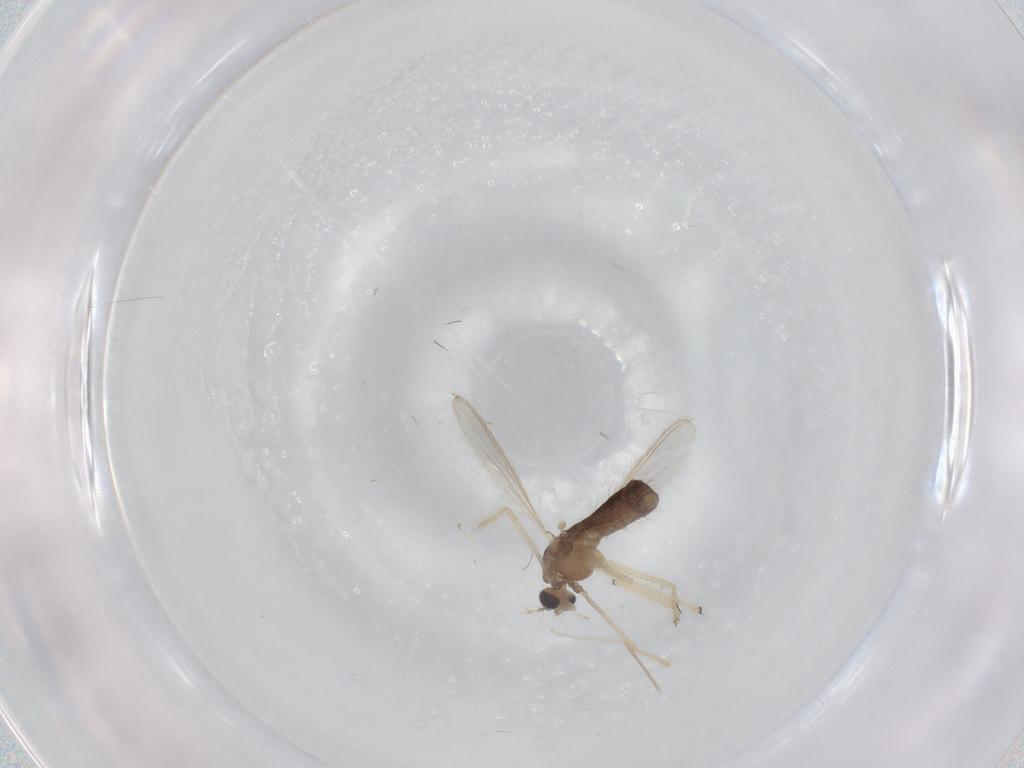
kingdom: Animalia
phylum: Arthropoda
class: Insecta
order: Diptera
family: Chironomidae
